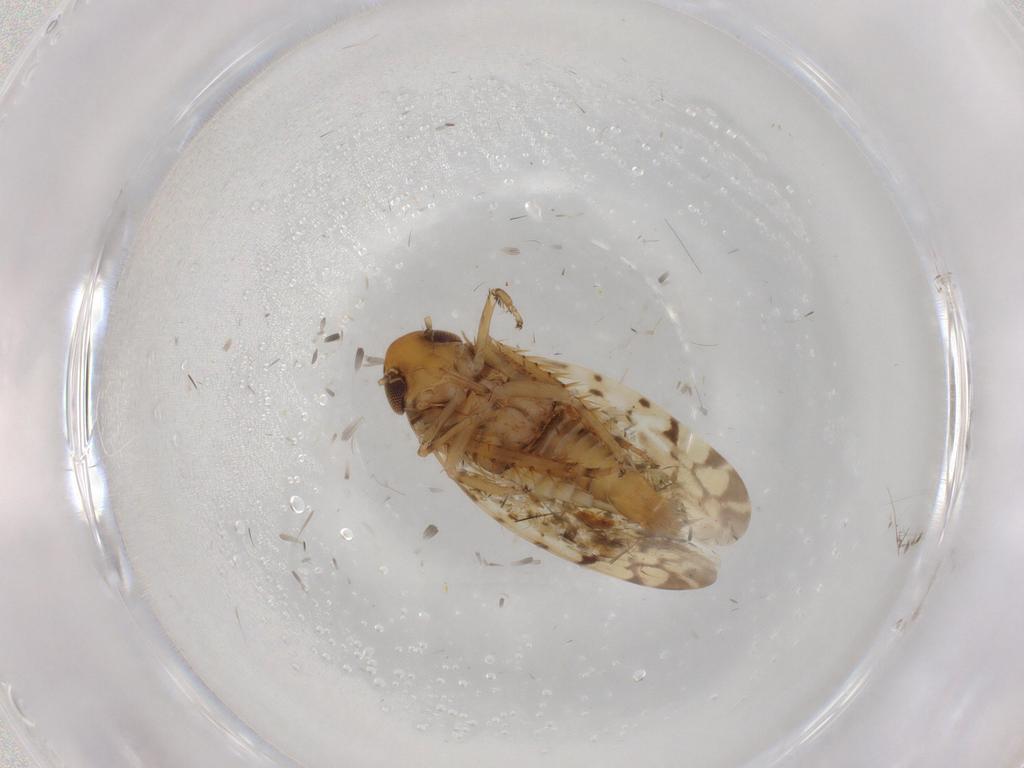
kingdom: Animalia
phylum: Arthropoda
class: Insecta
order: Hemiptera
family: Cicadellidae
